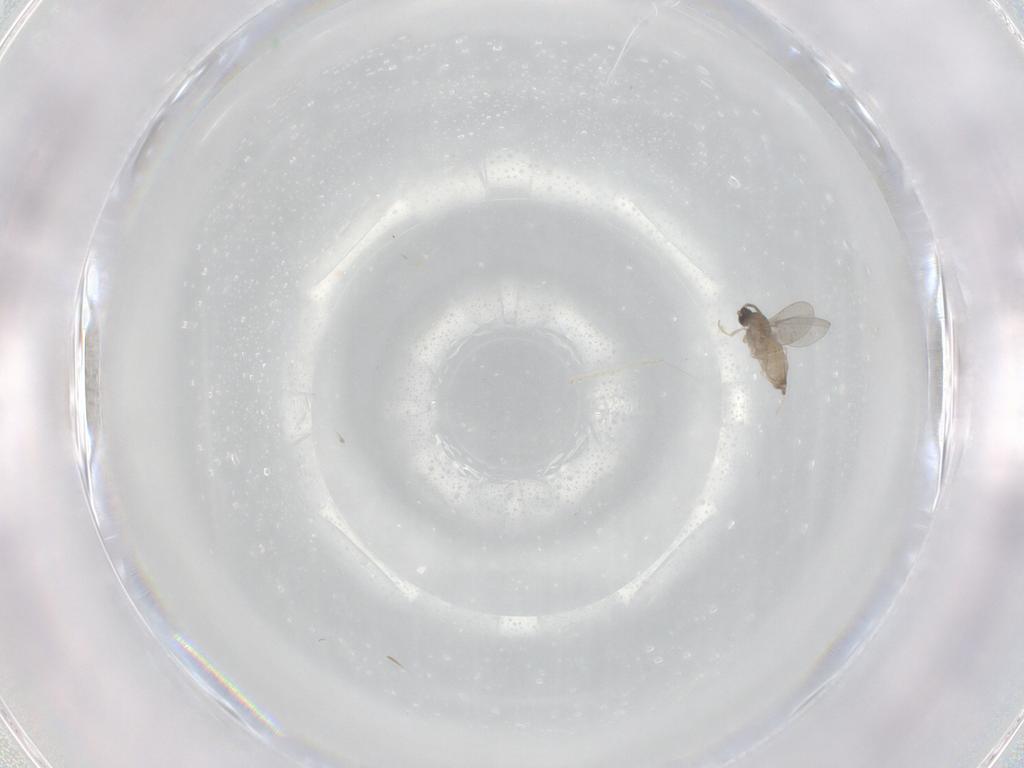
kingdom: Animalia
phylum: Arthropoda
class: Insecta
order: Diptera
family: Cecidomyiidae
